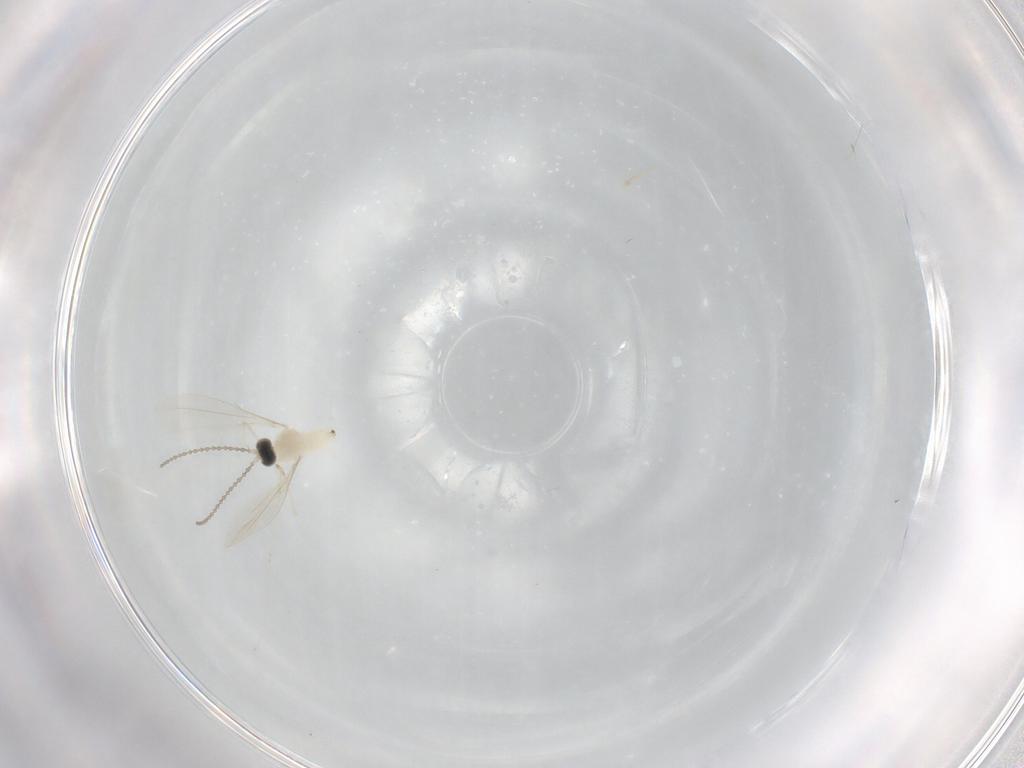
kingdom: Animalia
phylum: Arthropoda
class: Insecta
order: Diptera
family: Cecidomyiidae
